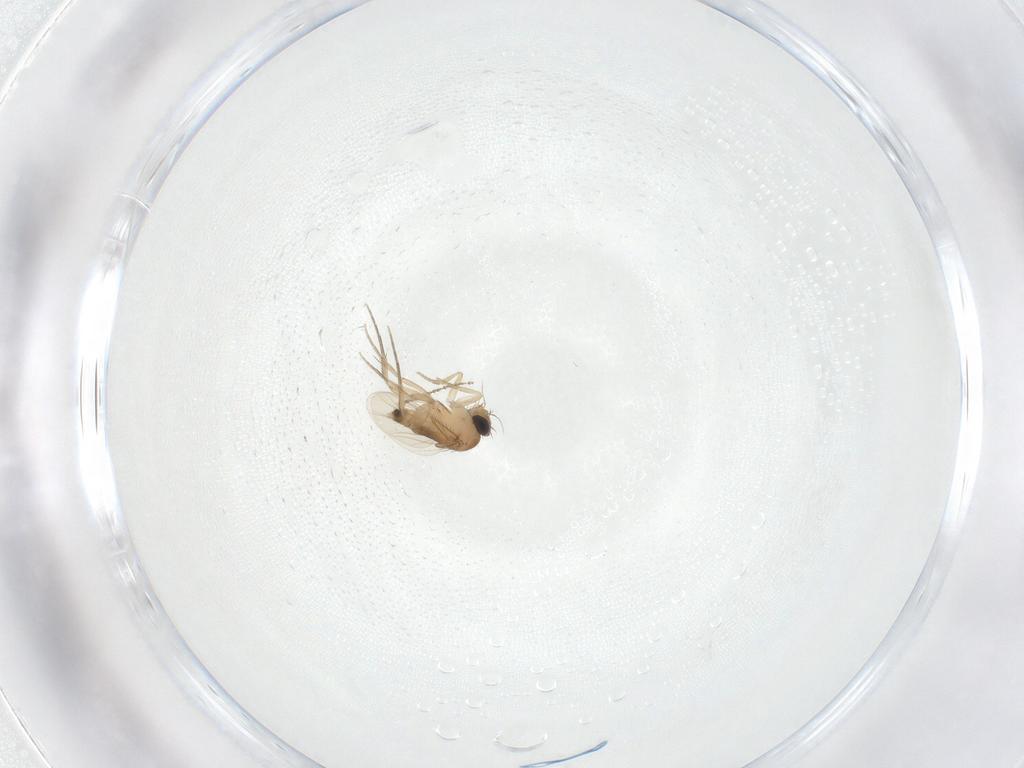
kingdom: Animalia
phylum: Arthropoda
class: Insecta
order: Diptera
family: Phoridae
